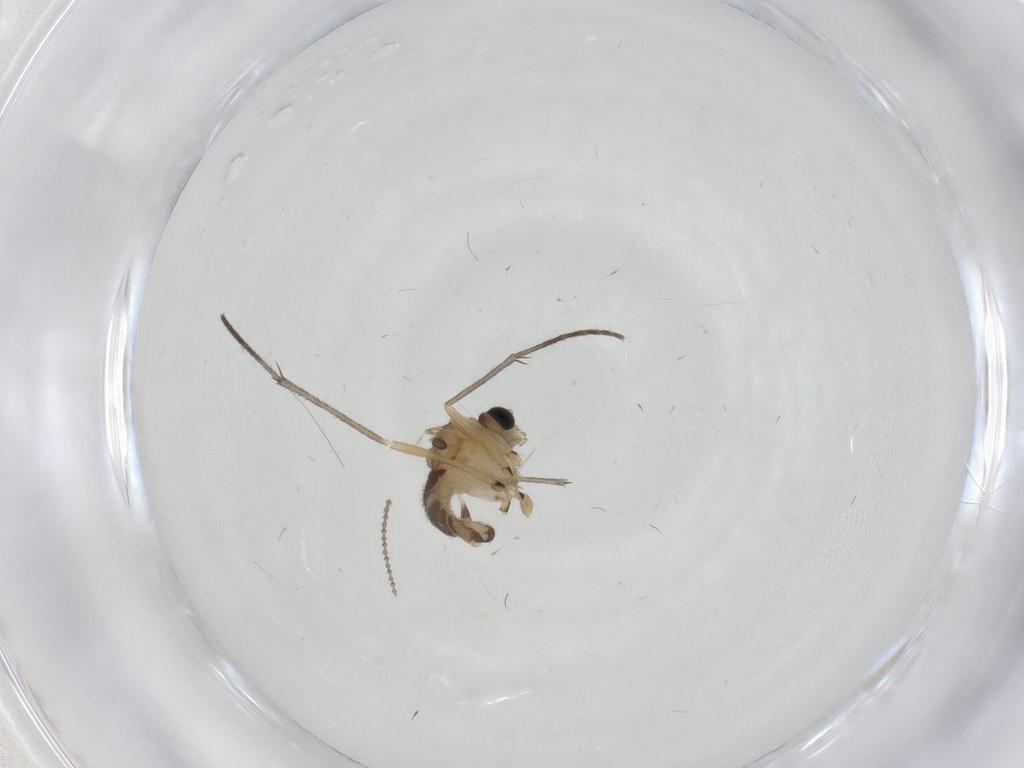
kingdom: Animalia
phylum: Arthropoda
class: Insecta
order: Diptera
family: Sciaridae
